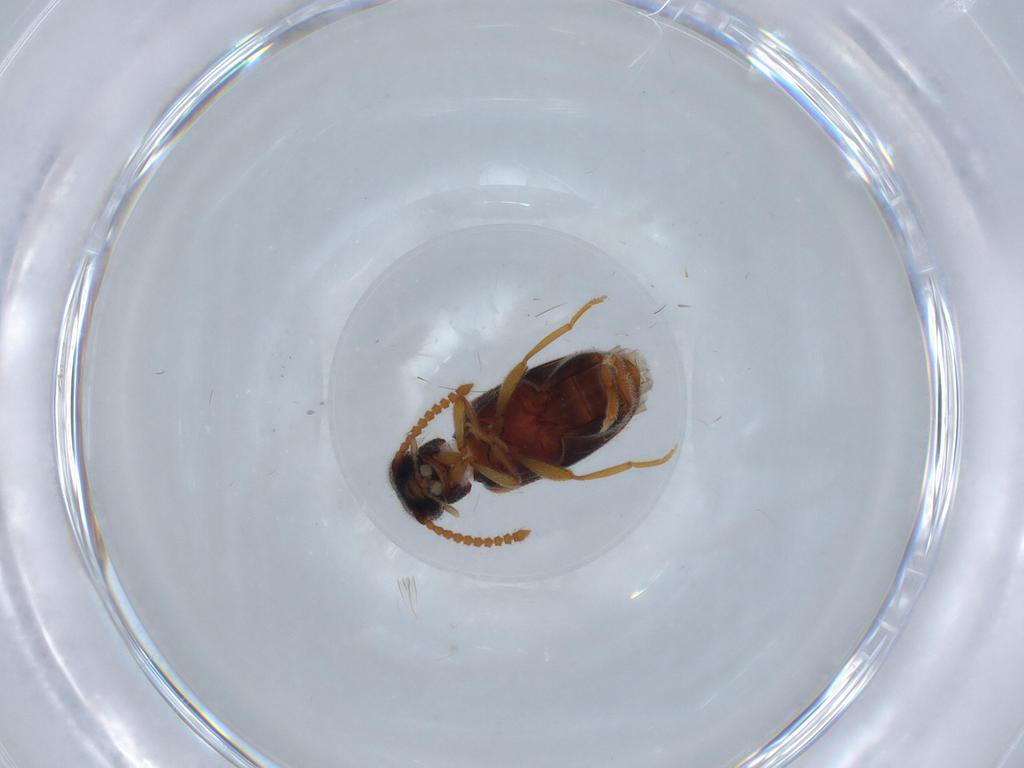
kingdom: Animalia
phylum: Arthropoda
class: Insecta
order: Coleoptera
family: Aderidae
